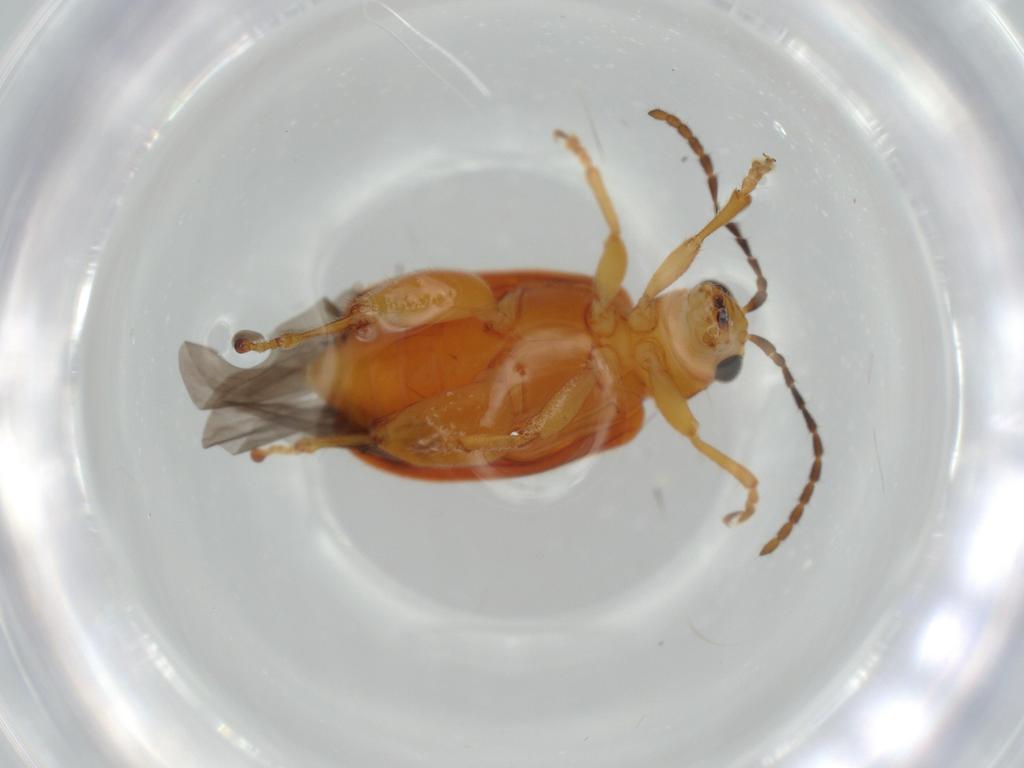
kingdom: Animalia
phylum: Arthropoda
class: Insecta
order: Coleoptera
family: Chrysomelidae
